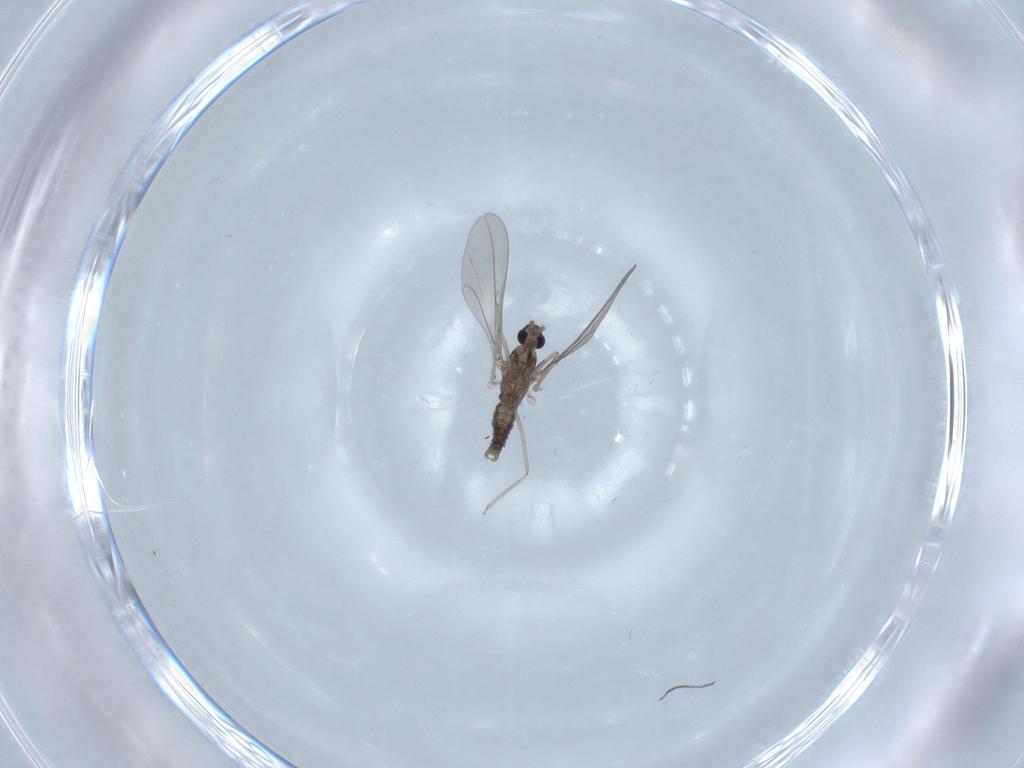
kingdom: Animalia
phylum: Arthropoda
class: Insecta
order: Diptera
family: Cecidomyiidae
